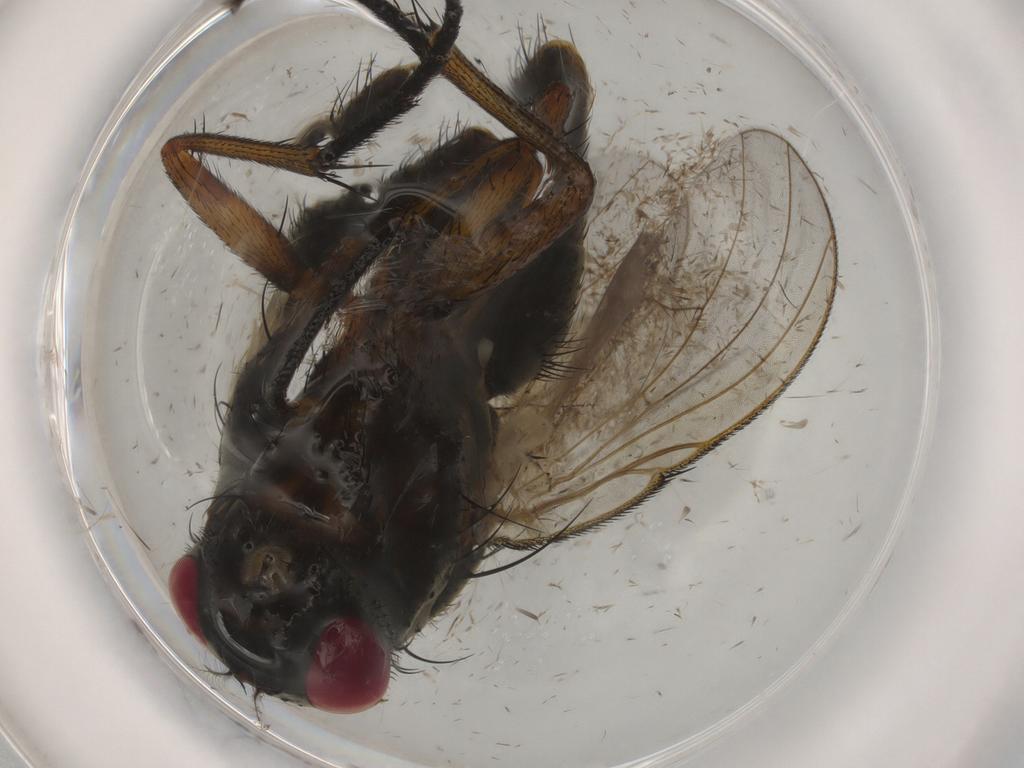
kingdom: Animalia
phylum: Arthropoda
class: Insecta
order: Diptera
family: Muscidae
